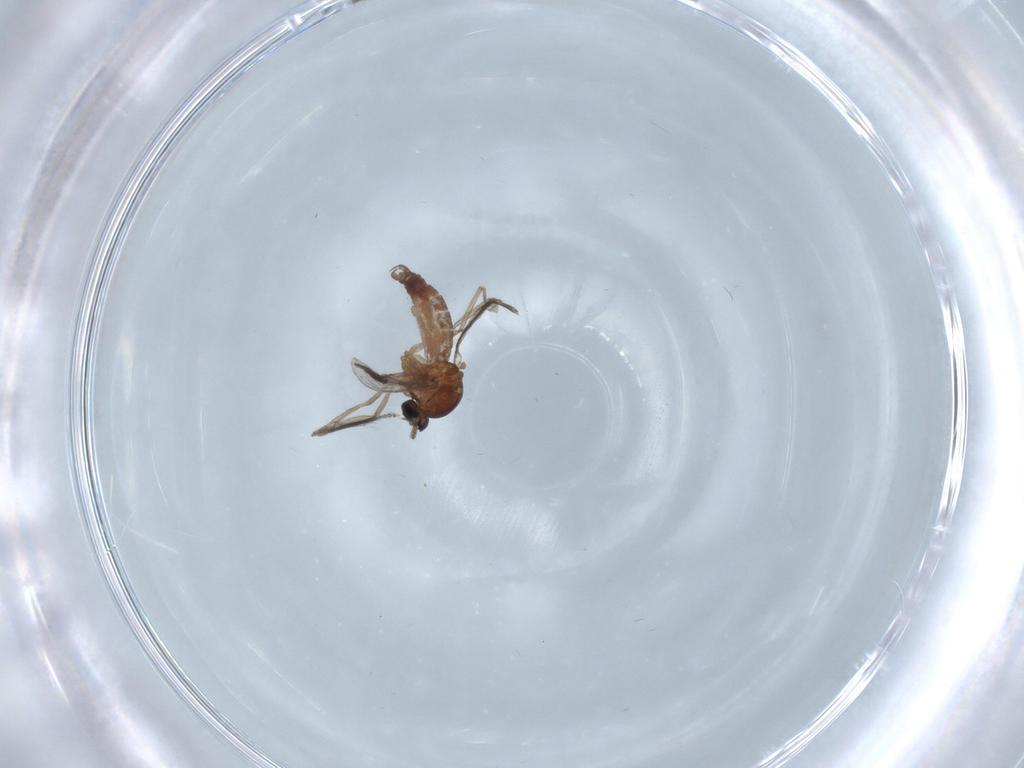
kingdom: Animalia
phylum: Arthropoda
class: Insecta
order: Diptera
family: Ceratopogonidae
